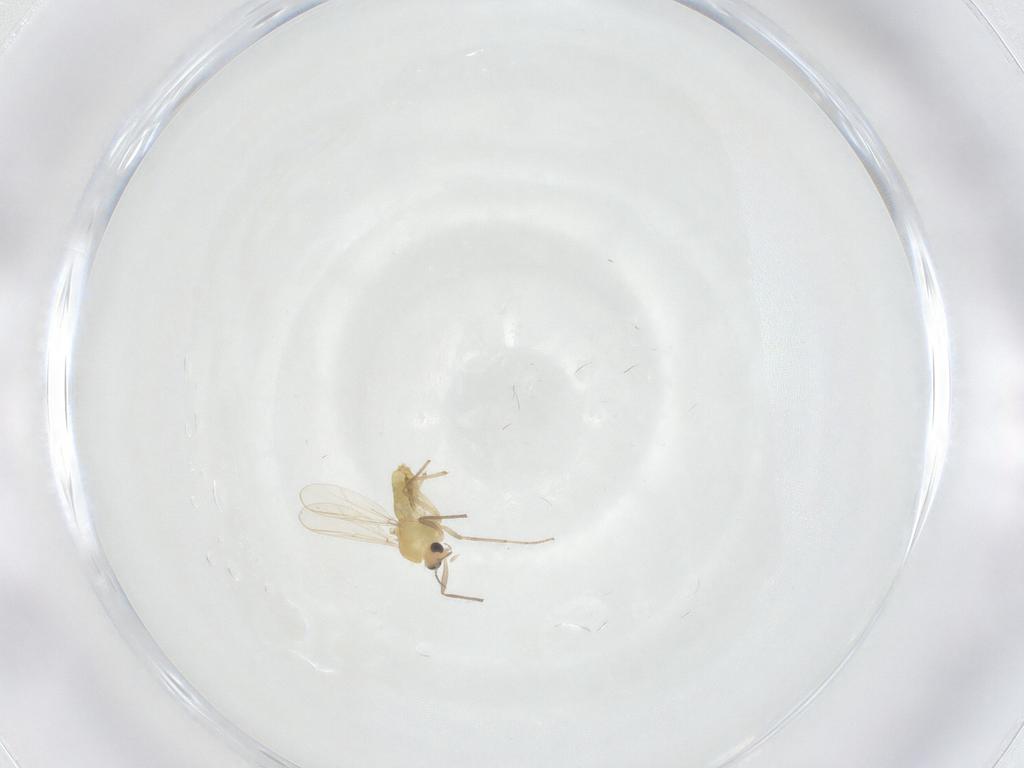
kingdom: Animalia
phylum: Arthropoda
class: Insecta
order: Diptera
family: Chironomidae
